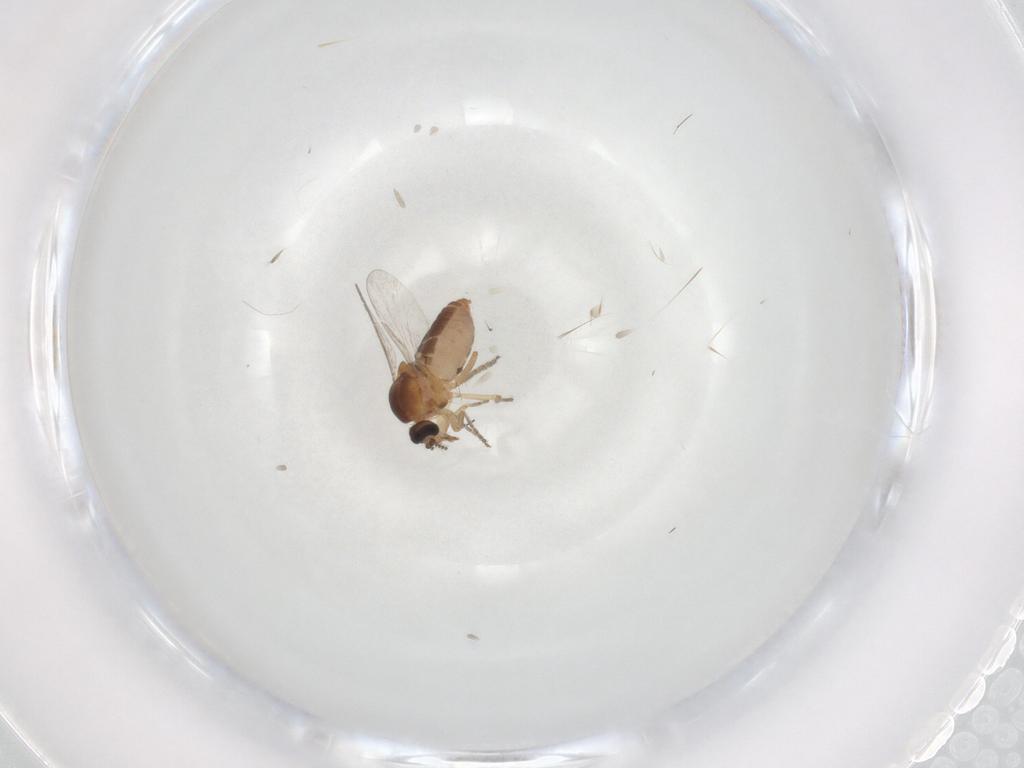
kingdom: Animalia
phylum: Arthropoda
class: Insecta
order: Diptera
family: Ceratopogonidae
